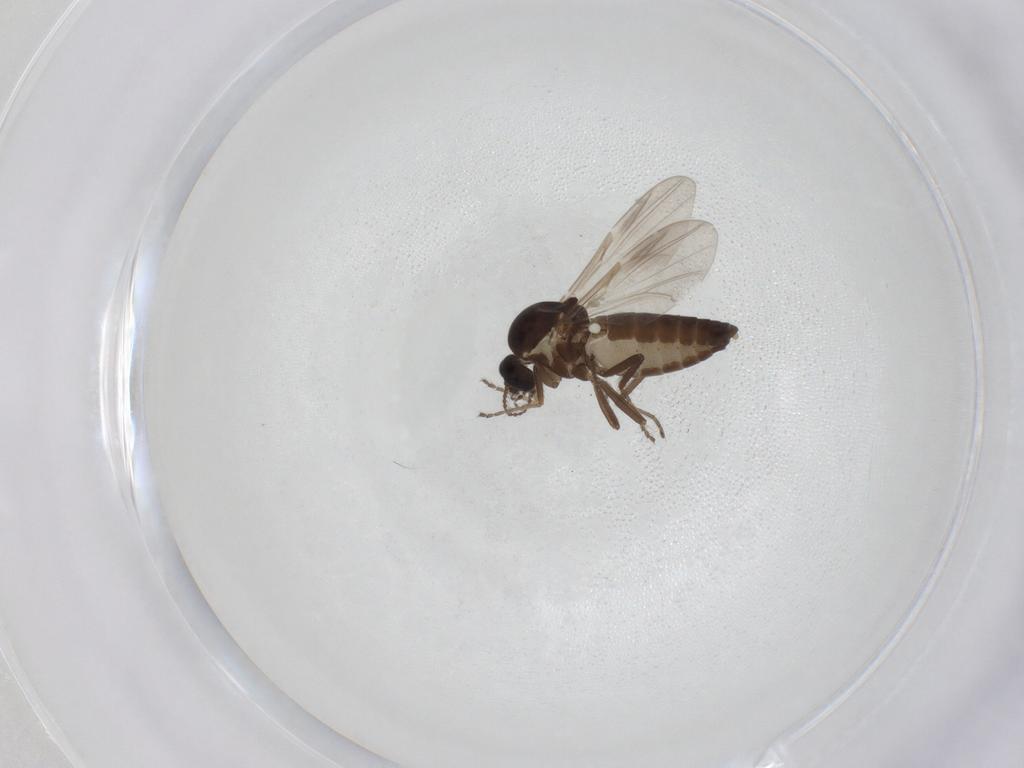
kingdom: Animalia
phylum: Arthropoda
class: Insecta
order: Diptera
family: Ceratopogonidae
